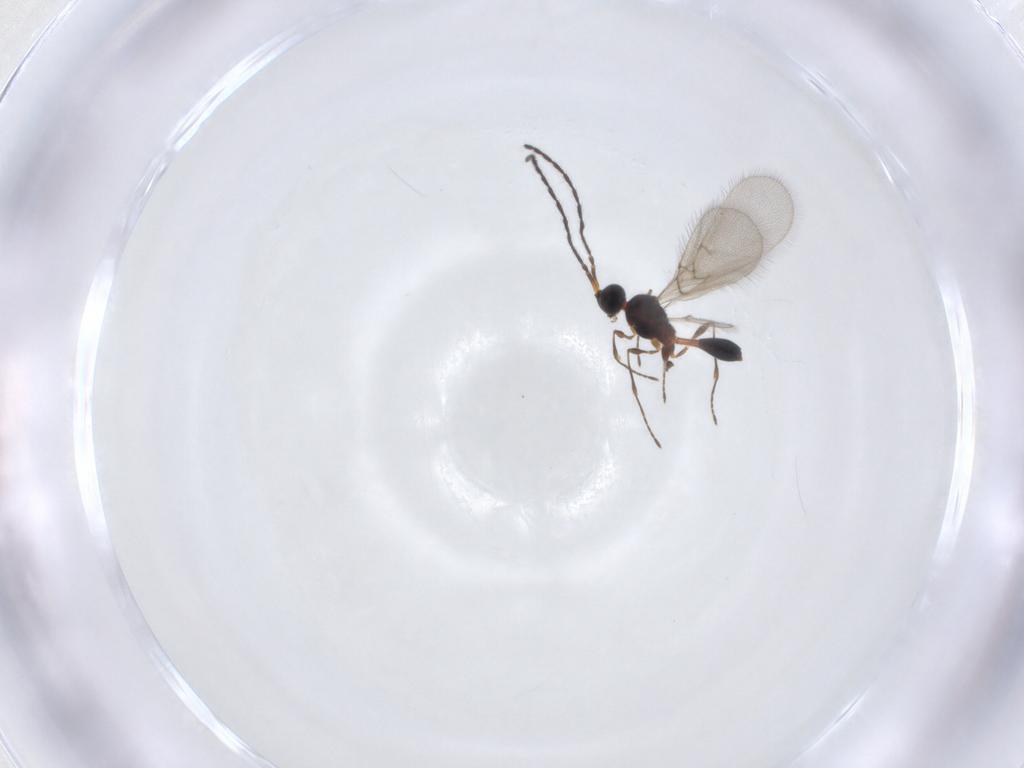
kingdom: Animalia
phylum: Arthropoda
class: Insecta
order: Hymenoptera
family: Diapriidae
